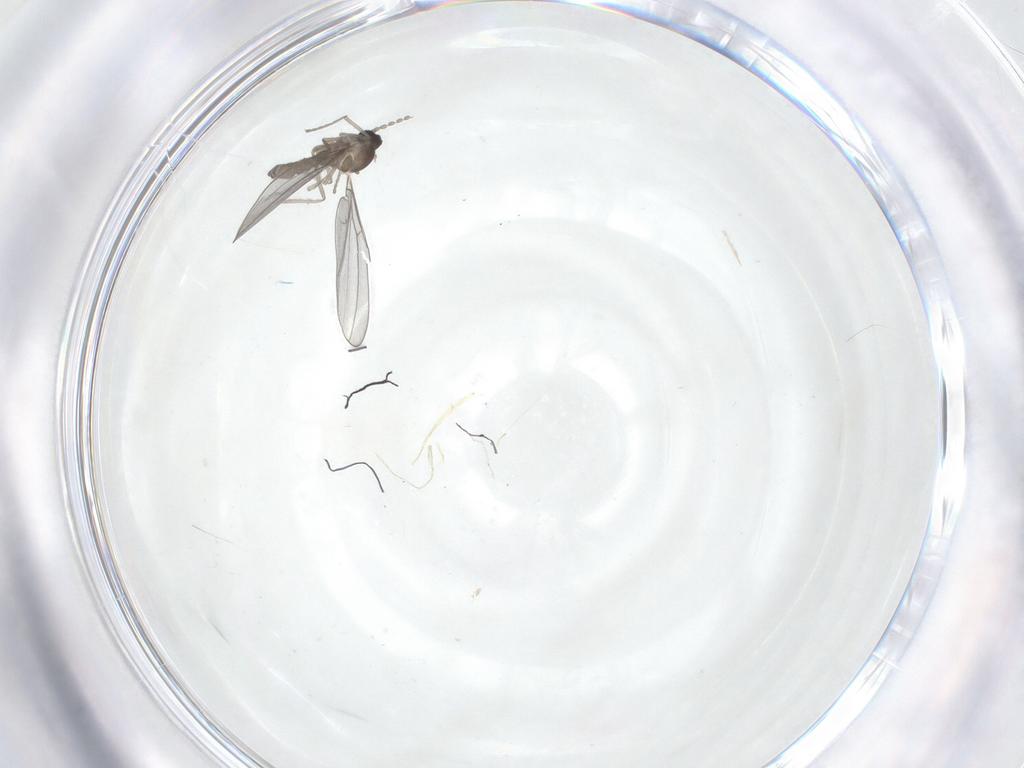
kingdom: Animalia
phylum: Arthropoda
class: Insecta
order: Diptera
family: Cecidomyiidae
